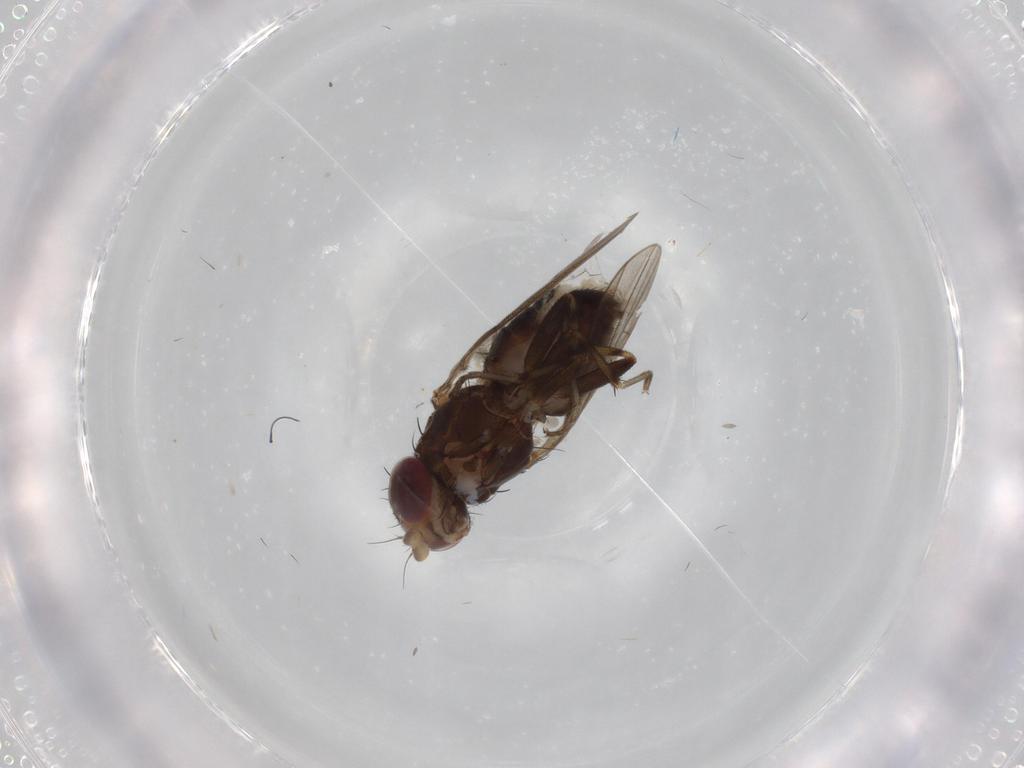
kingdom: Animalia
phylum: Arthropoda
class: Insecta
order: Diptera
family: Heleomyzidae
